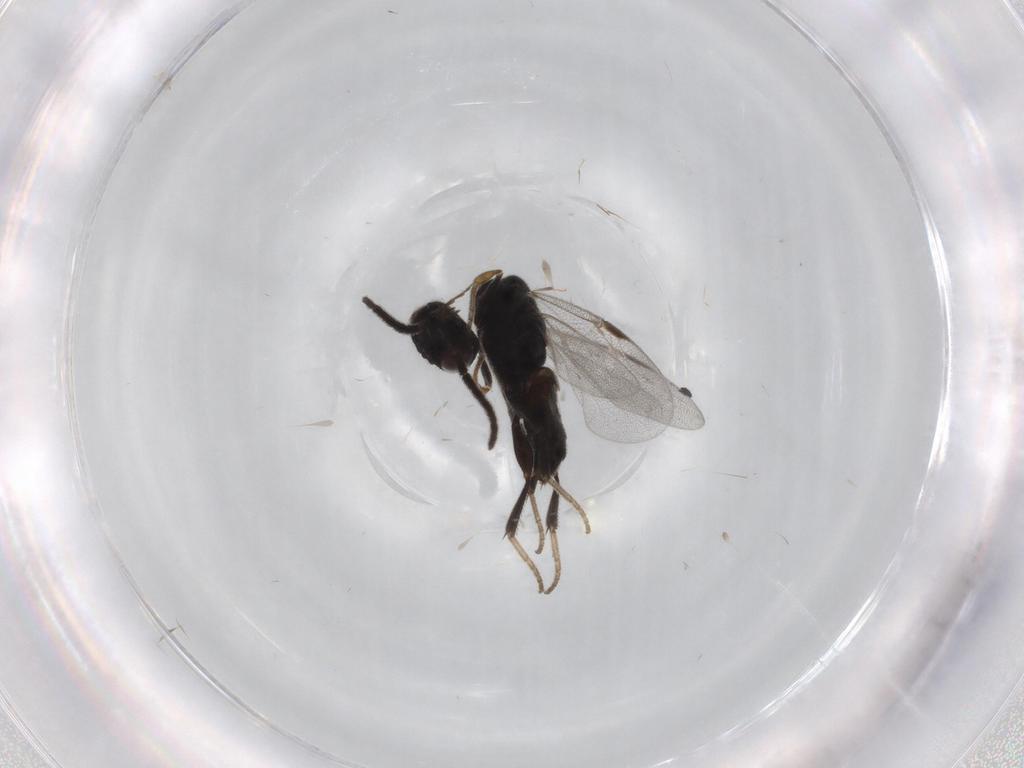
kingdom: Animalia
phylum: Arthropoda
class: Insecta
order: Hymenoptera
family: Dryinidae
